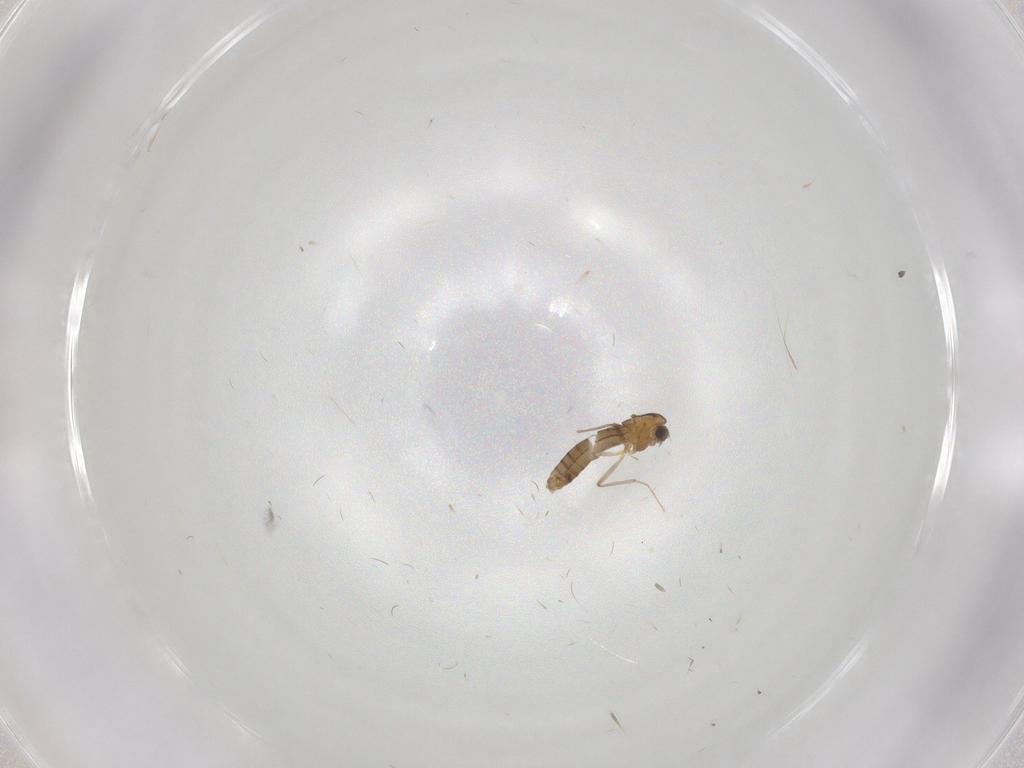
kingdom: Animalia
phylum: Arthropoda
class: Insecta
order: Diptera
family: Chironomidae
